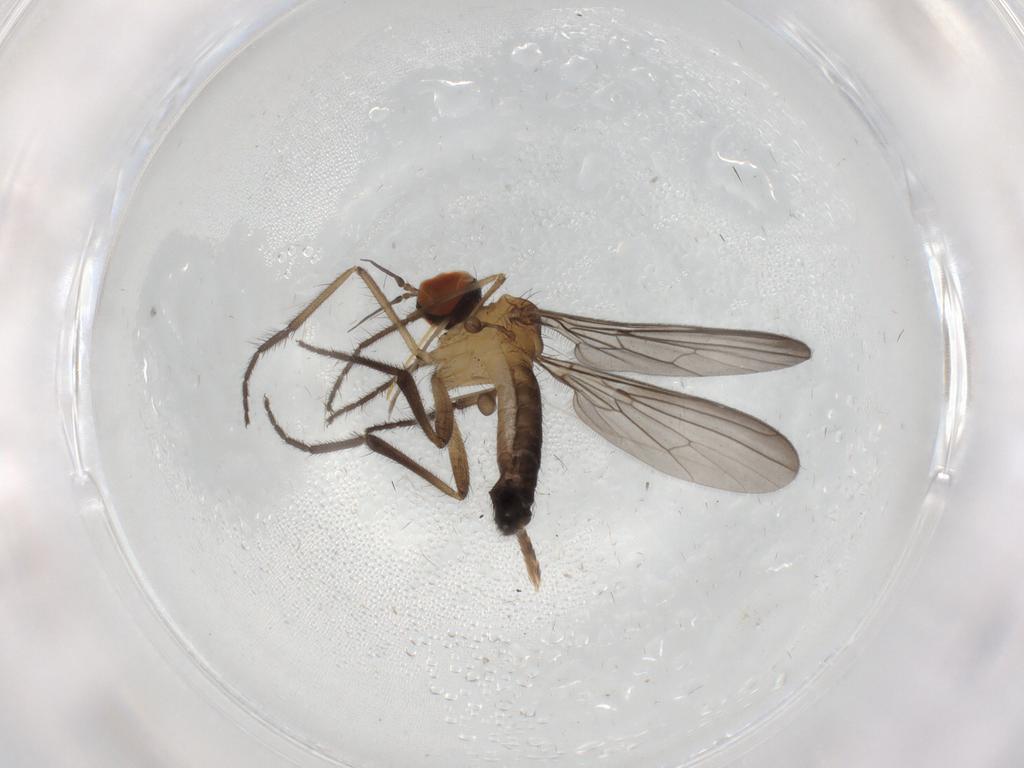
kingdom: Animalia
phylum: Arthropoda
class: Insecta
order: Diptera
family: Empididae
